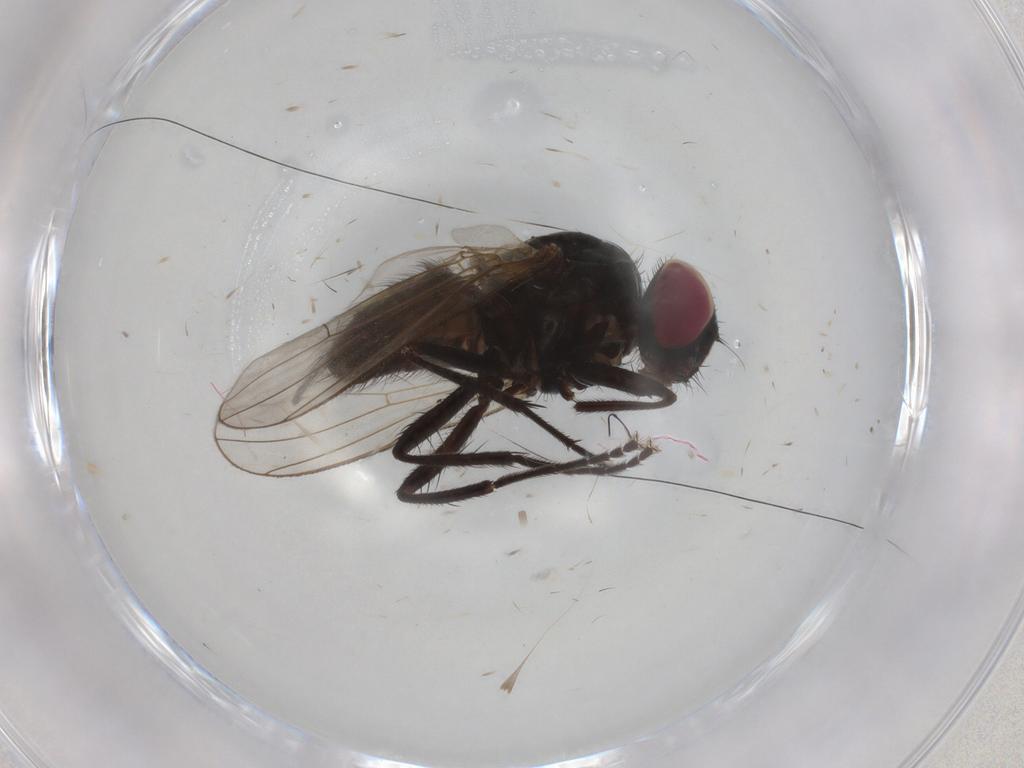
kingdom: Animalia
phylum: Arthropoda
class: Insecta
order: Diptera
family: Muscidae
